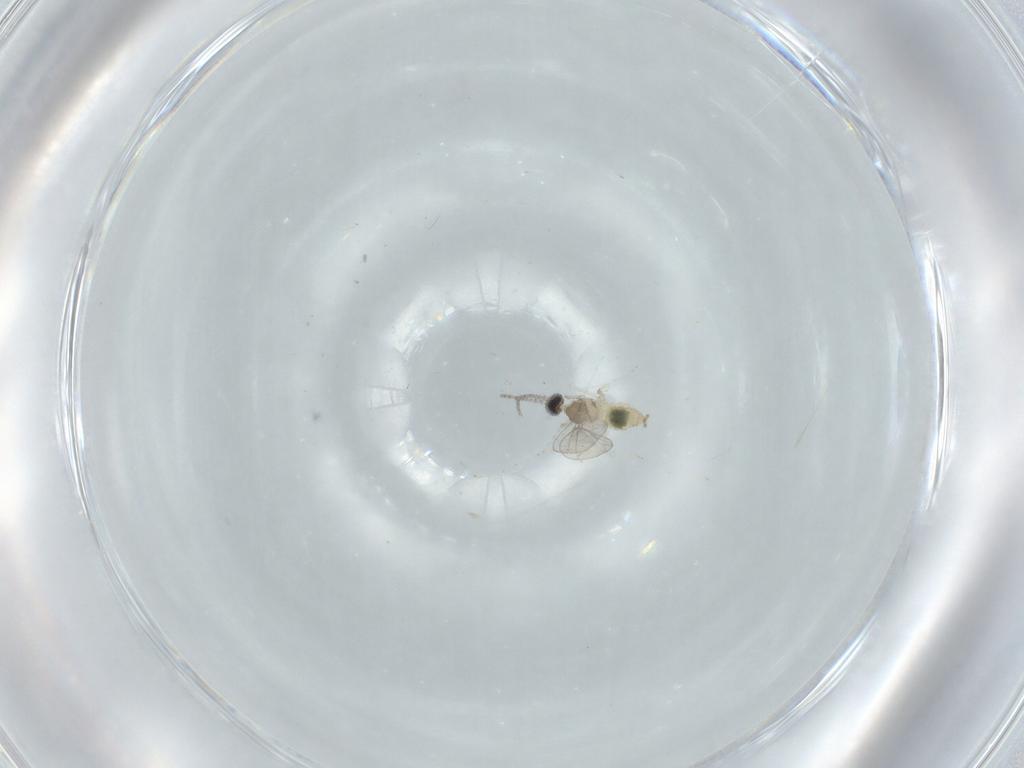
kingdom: Animalia
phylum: Arthropoda
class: Insecta
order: Diptera
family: Cecidomyiidae
